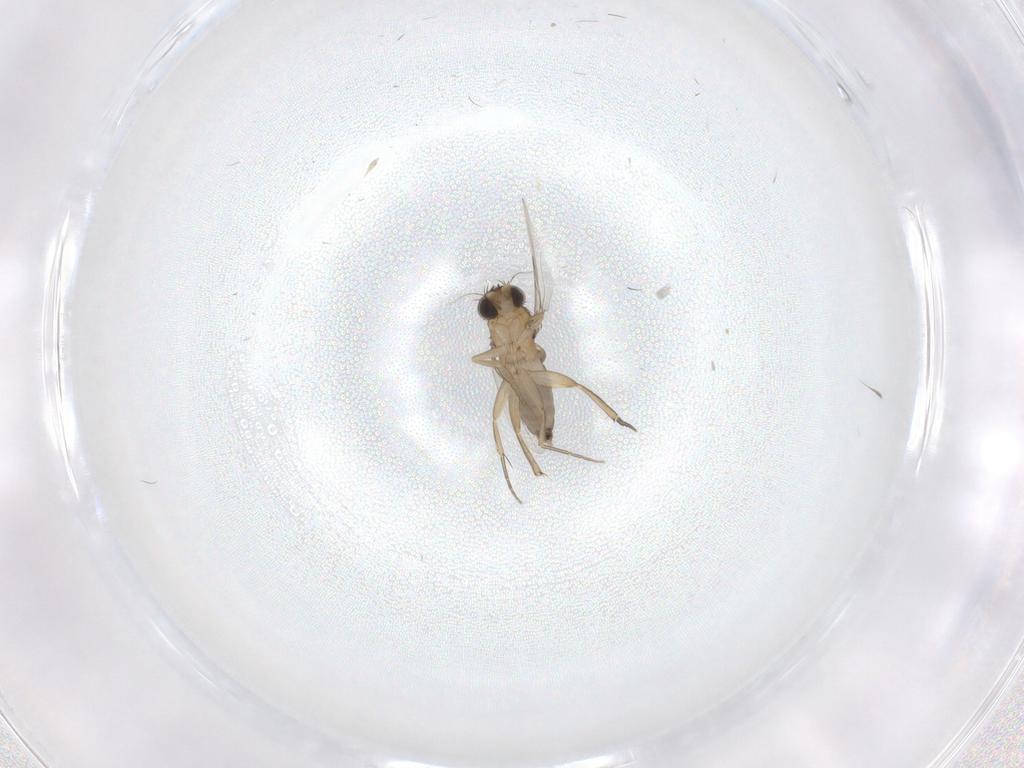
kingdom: Animalia
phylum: Arthropoda
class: Insecta
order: Diptera
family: Phoridae
